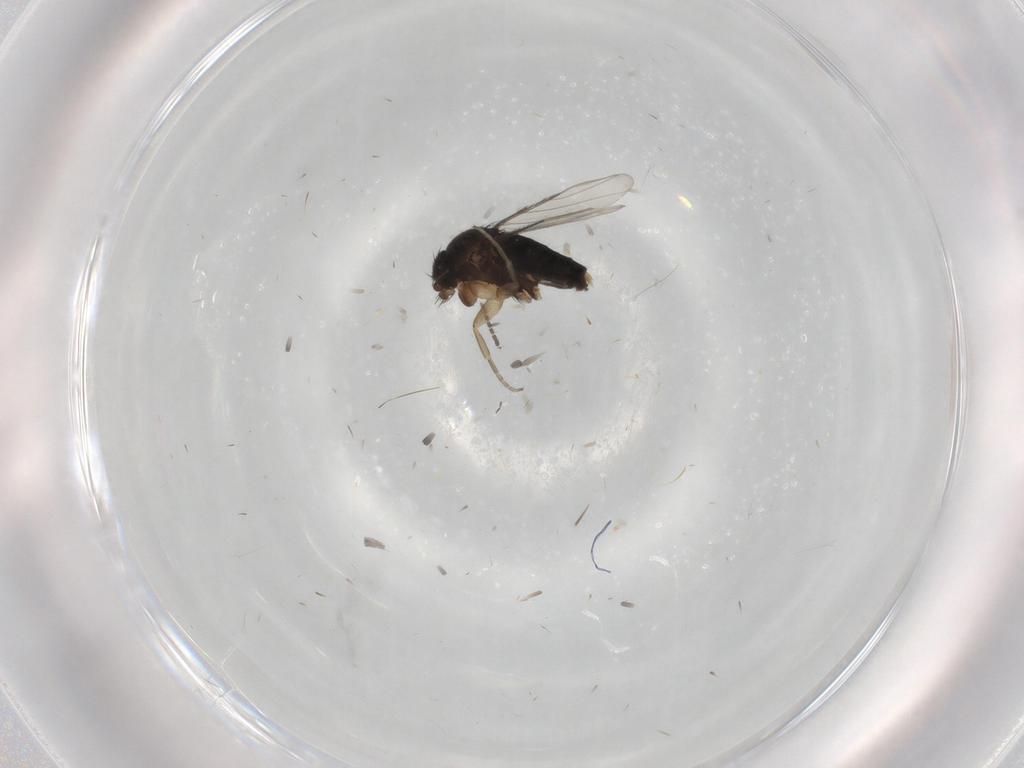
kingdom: Animalia
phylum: Arthropoda
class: Insecta
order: Diptera
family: Phoridae
